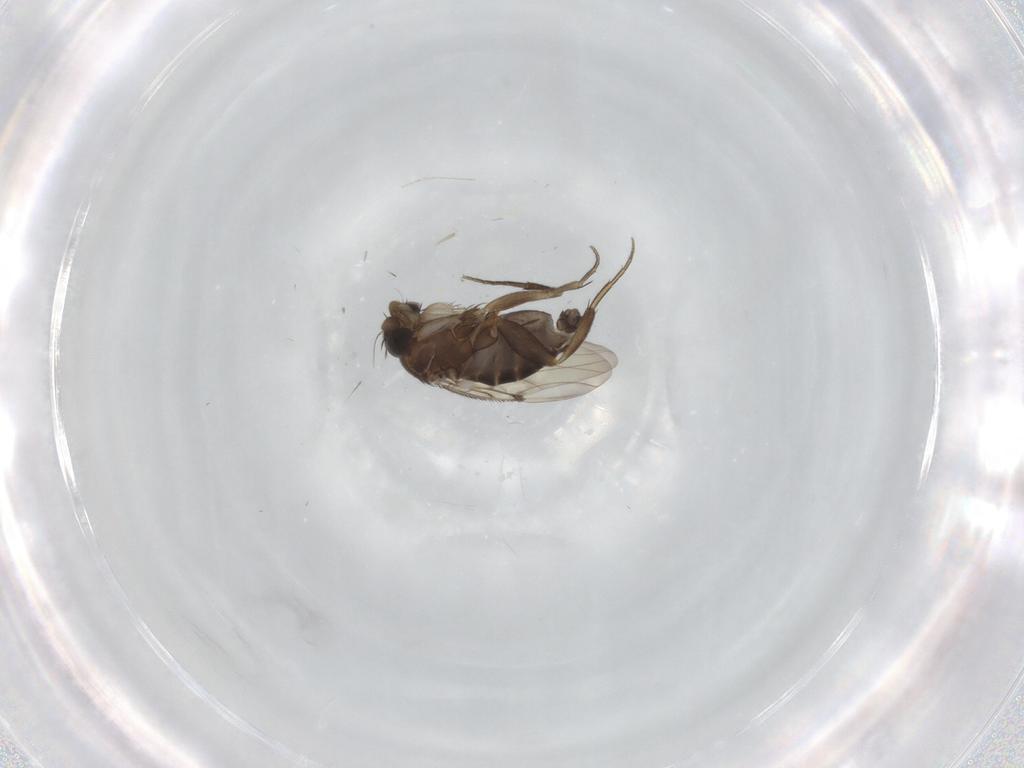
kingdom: Animalia
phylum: Arthropoda
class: Insecta
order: Diptera
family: Phoridae
